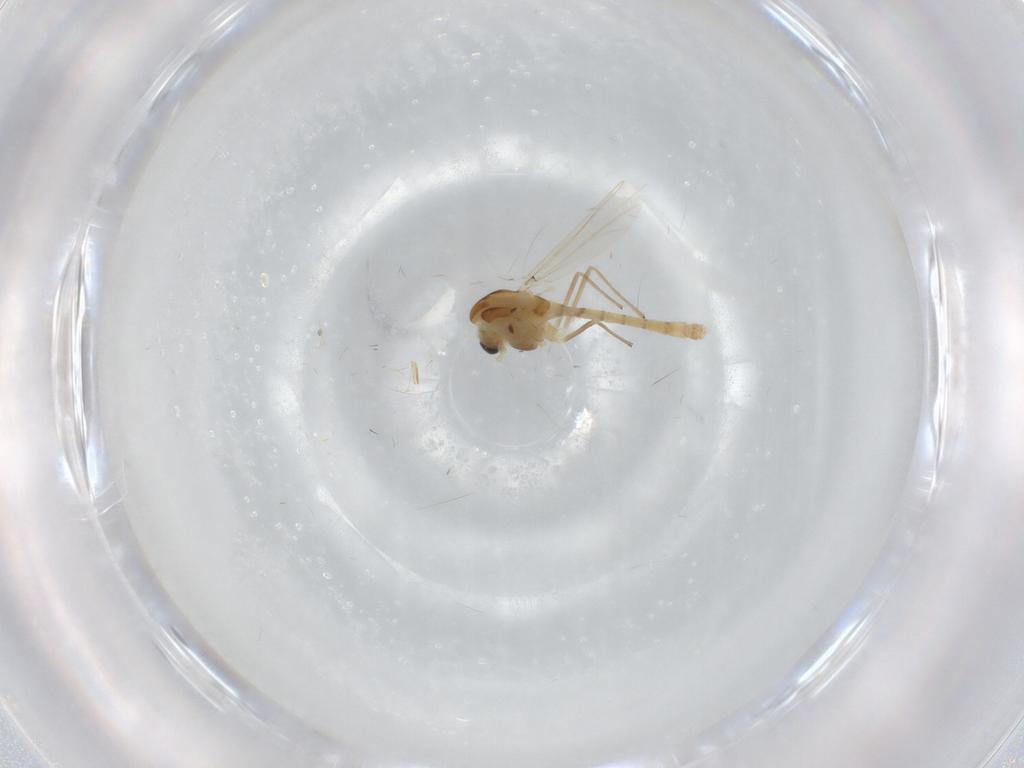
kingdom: Animalia
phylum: Arthropoda
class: Insecta
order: Diptera
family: Chironomidae
